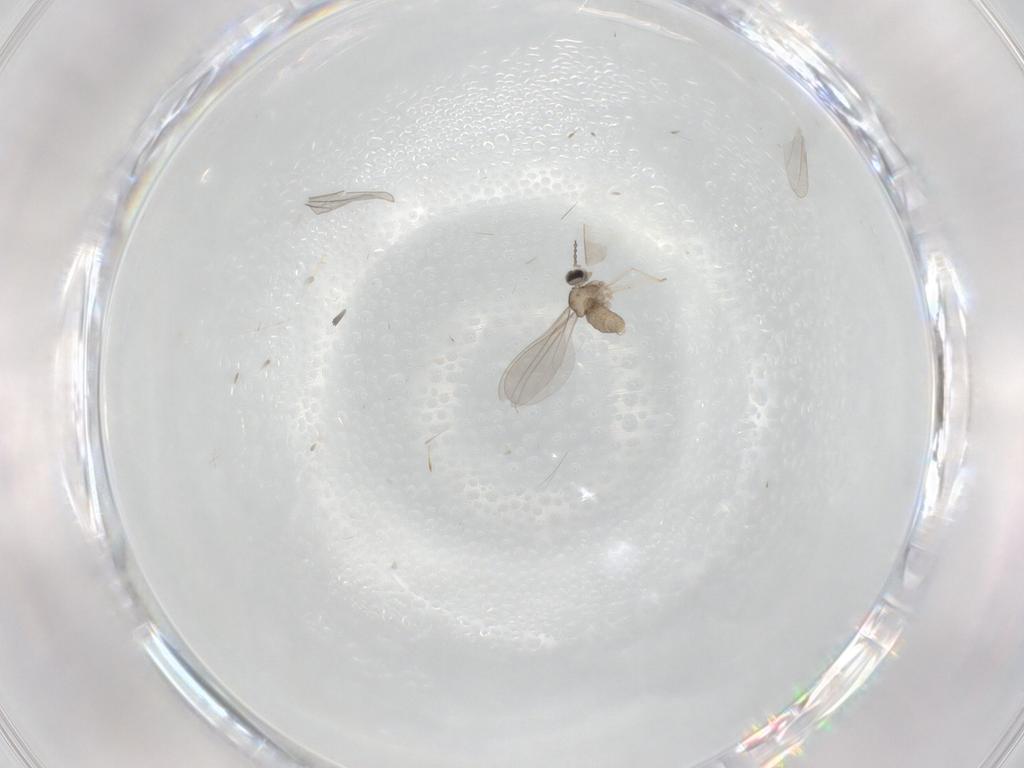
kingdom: Animalia
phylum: Arthropoda
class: Insecta
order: Diptera
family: Cecidomyiidae
